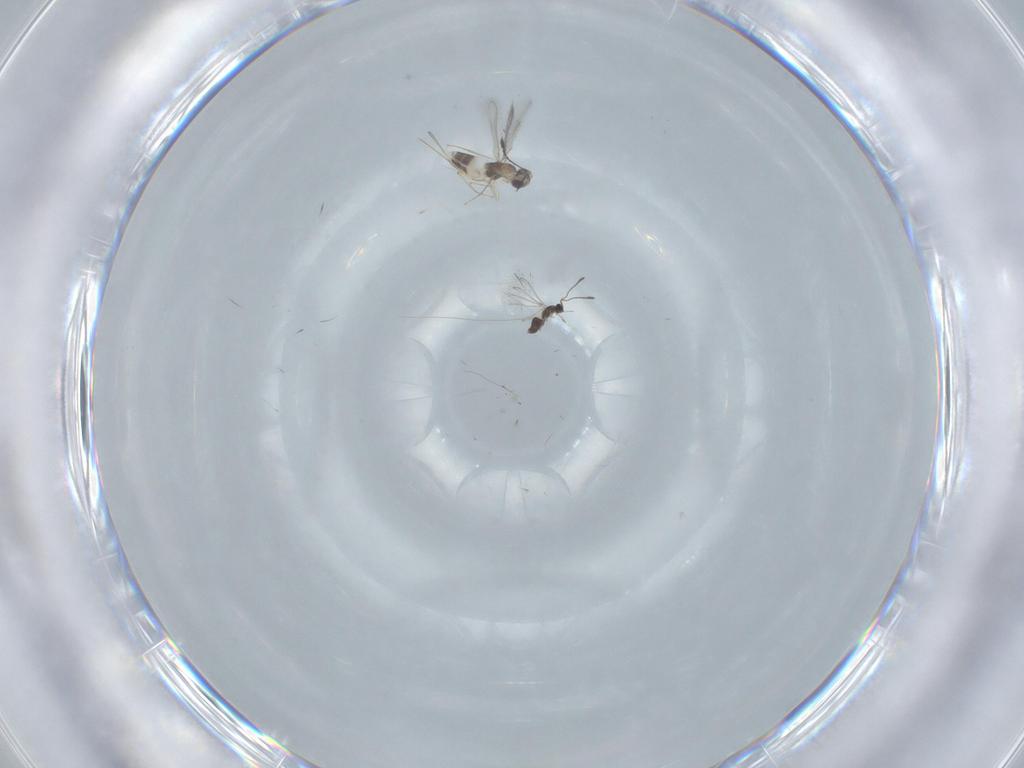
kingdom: Animalia
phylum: Arthropoda
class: Insecta
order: Hymenoptera
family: Mymaridae
